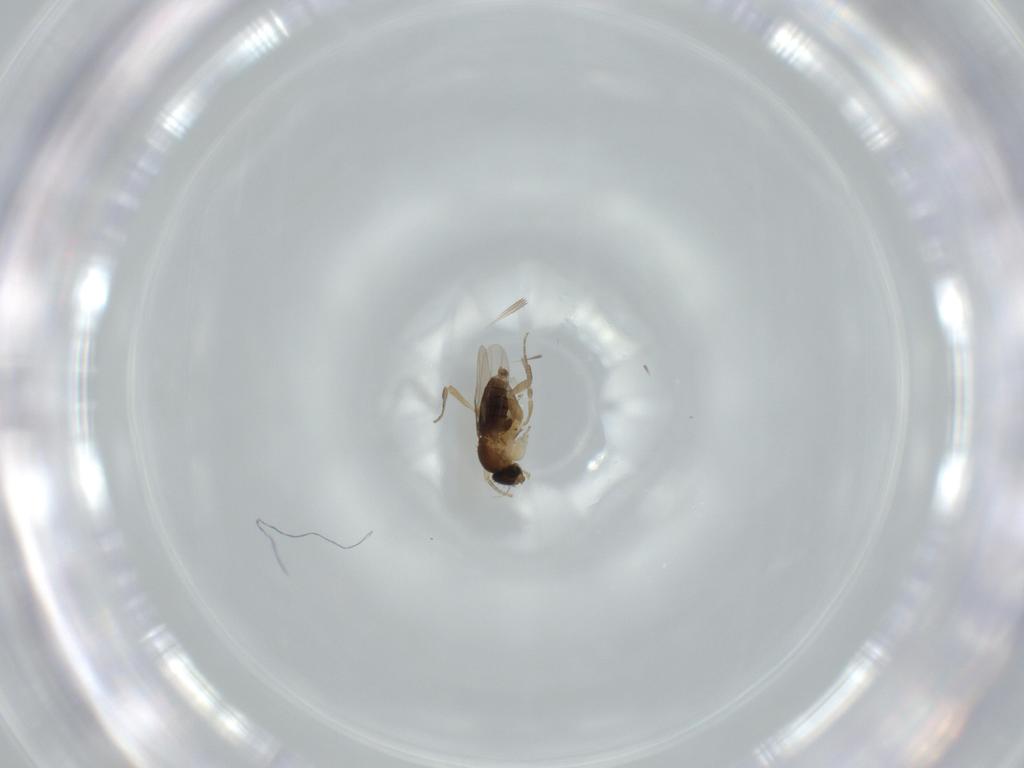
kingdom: Animalia
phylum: Arthropoda
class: Insecta
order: Diptera
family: Phoridae
